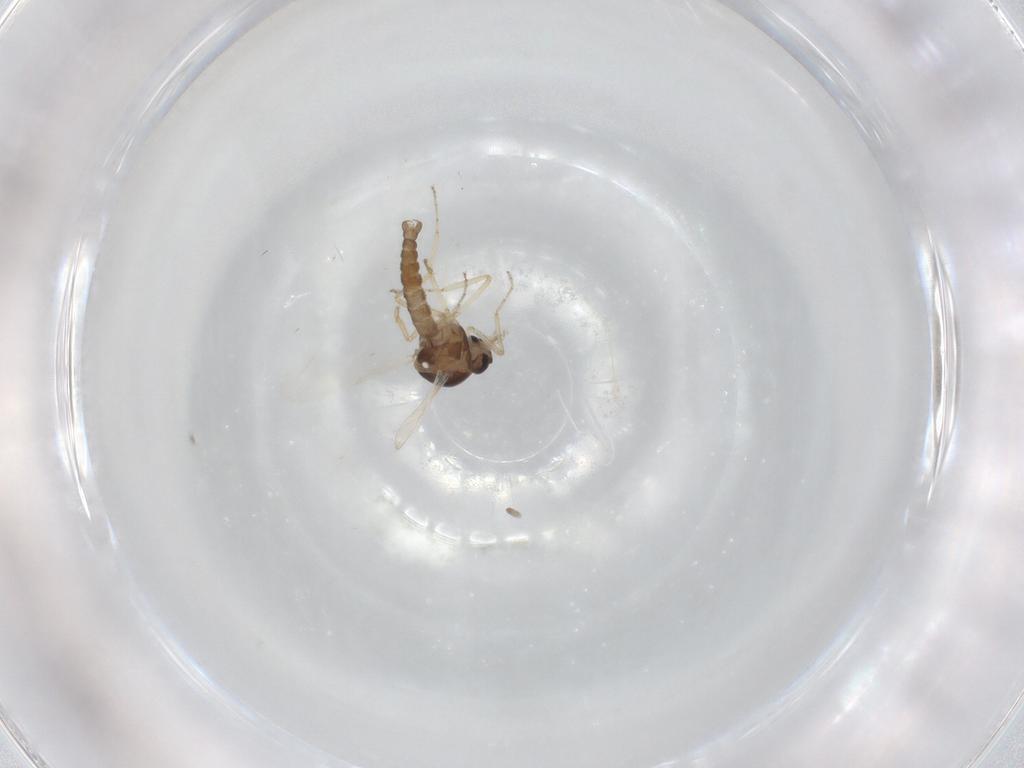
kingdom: Animalia
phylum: Arthropoda
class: Insecta
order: Diptera
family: Ceratopogonidae
